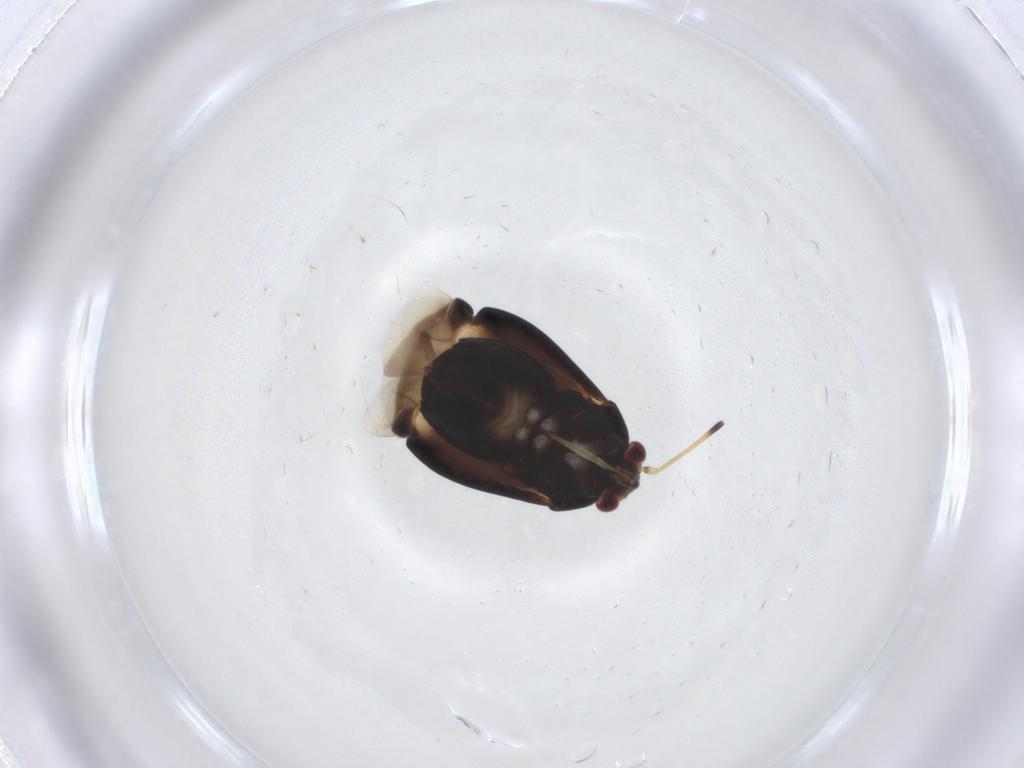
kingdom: Animalia
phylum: Arthropoda
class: Insecta
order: Hemiptera
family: Miridae
